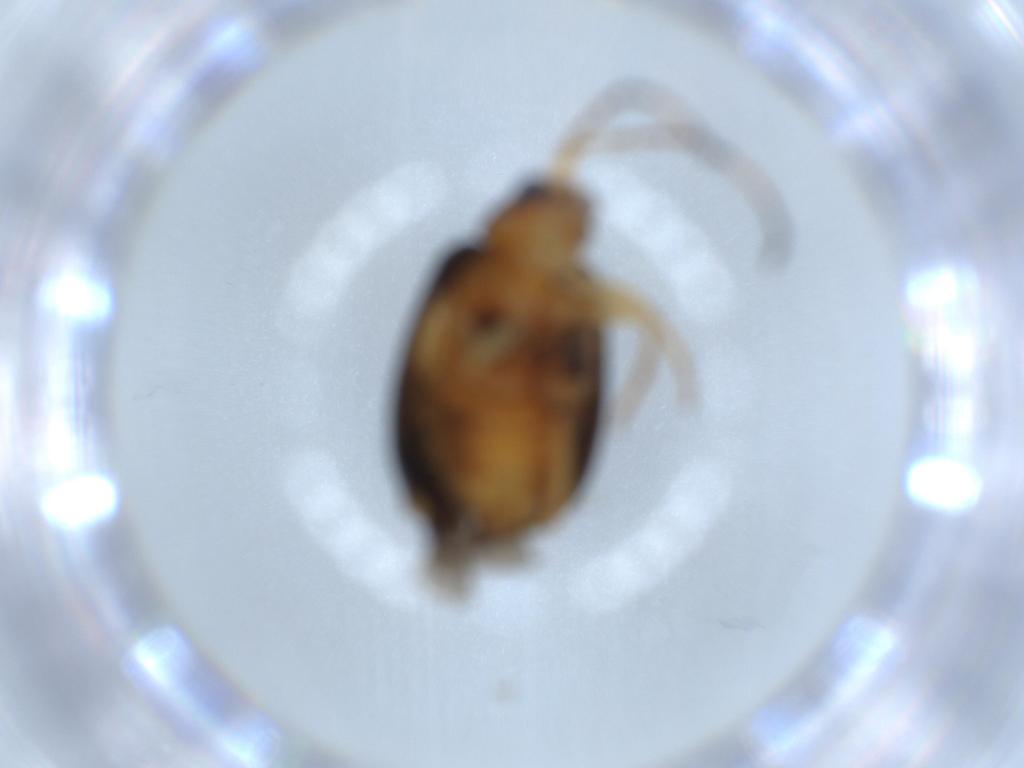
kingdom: Animalia
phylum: Arthropoda
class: Insecta
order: Coleoptera
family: Chrysomelidae
